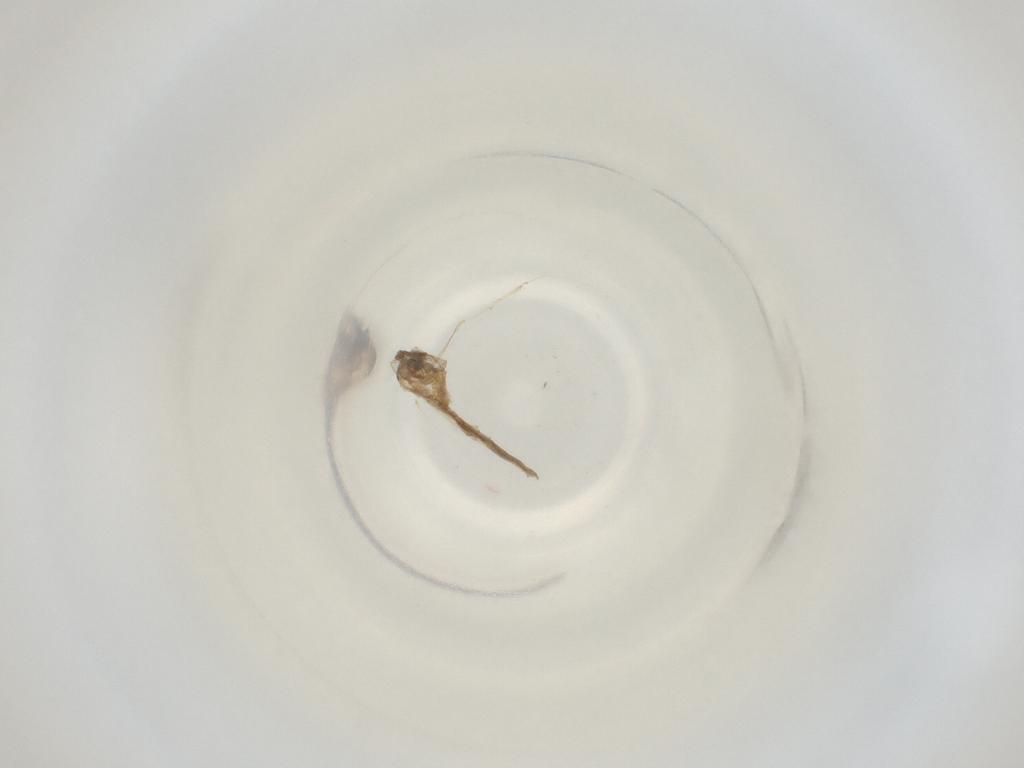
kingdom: Animalia
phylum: Arthropoda
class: Insecta
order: Diptera
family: Cecidomyiidae
